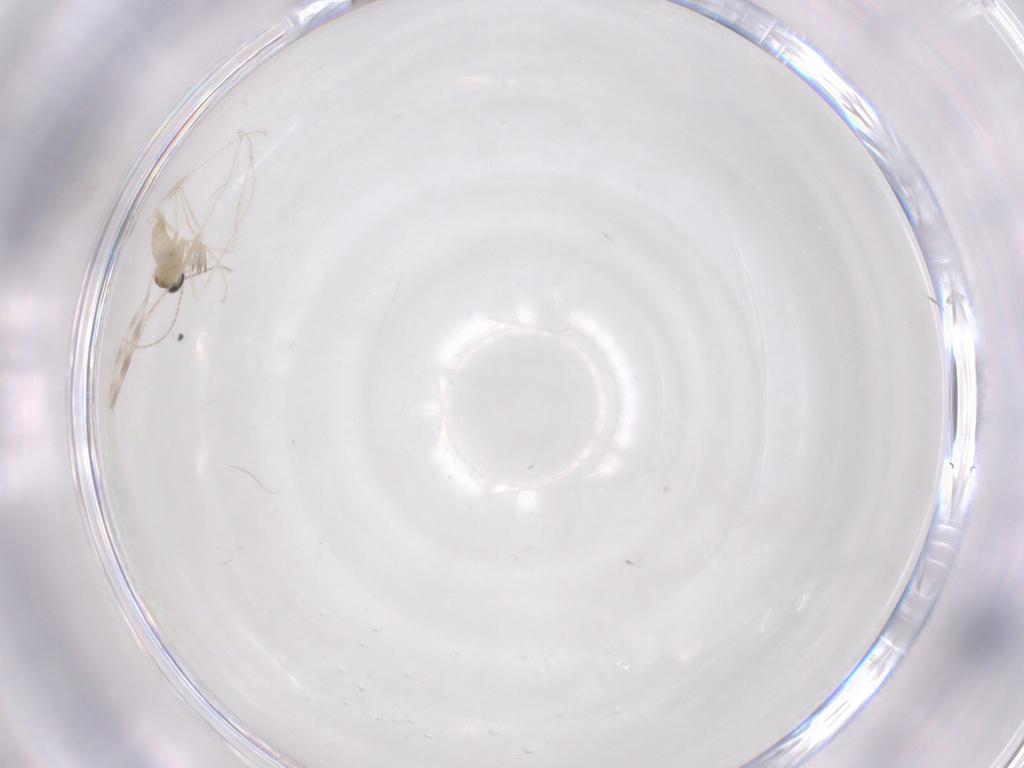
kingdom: Animalia
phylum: Arthropoda
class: Insecta
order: Diptera
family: Cecidomyiidae
